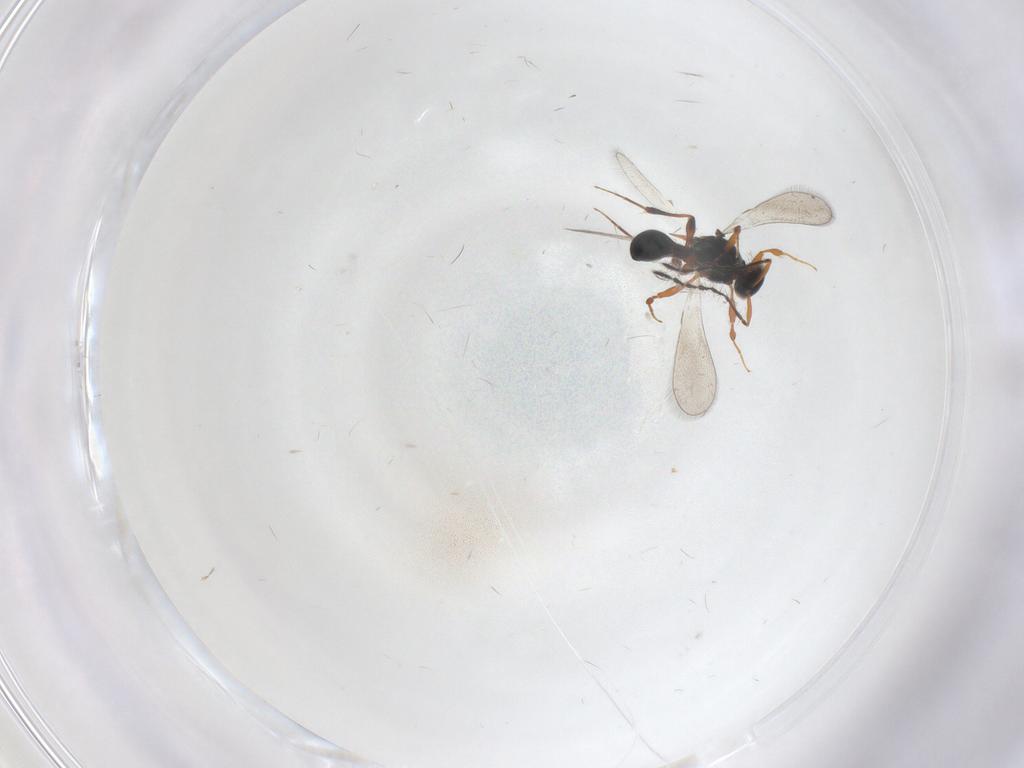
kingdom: Animalia
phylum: Arthropoda
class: Insecta
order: Hymenoptera
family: Platygastridae
